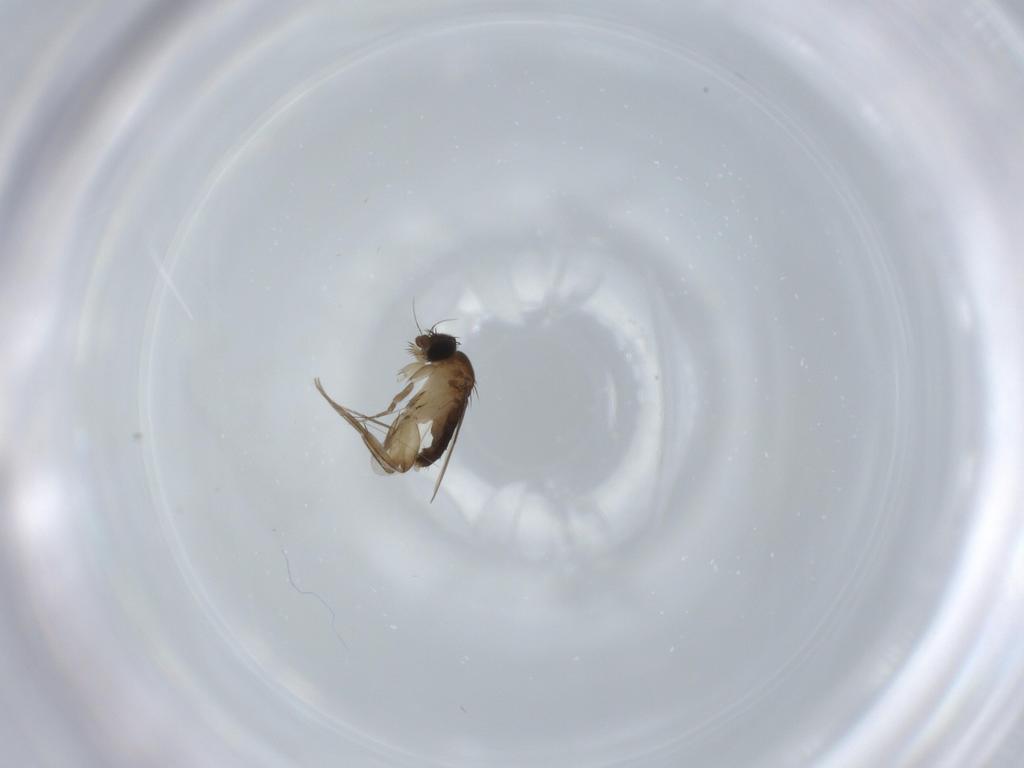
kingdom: Animalia
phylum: Arthropoda
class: Insecta
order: Diptera
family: Phoridae
